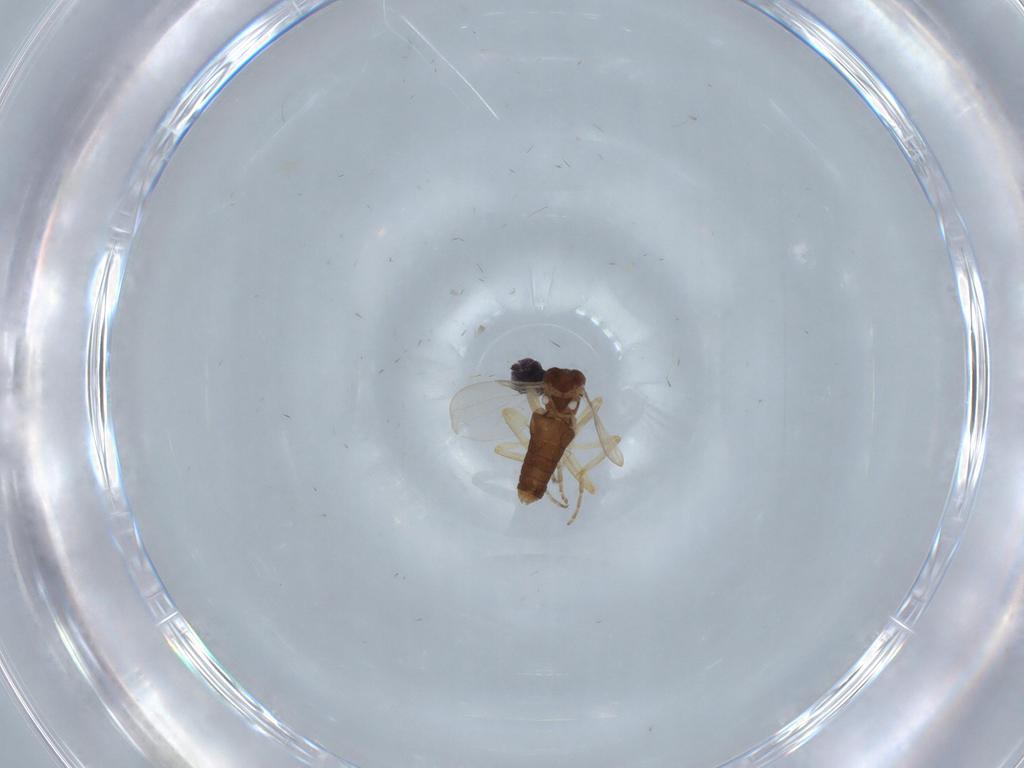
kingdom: Animalia
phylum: Arthropoda
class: Insecta
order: Diptera
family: Ceratopogonidae
